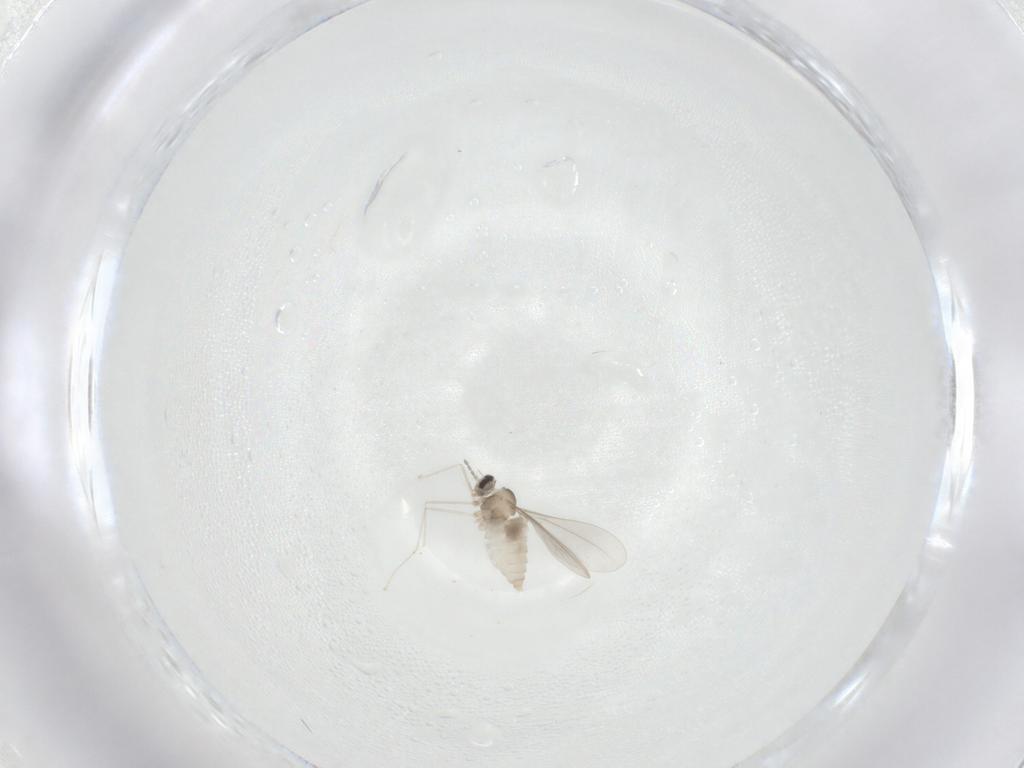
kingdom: Animalia
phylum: Arthropoda
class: Insecta
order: Diptera
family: Cecidomyiidae
